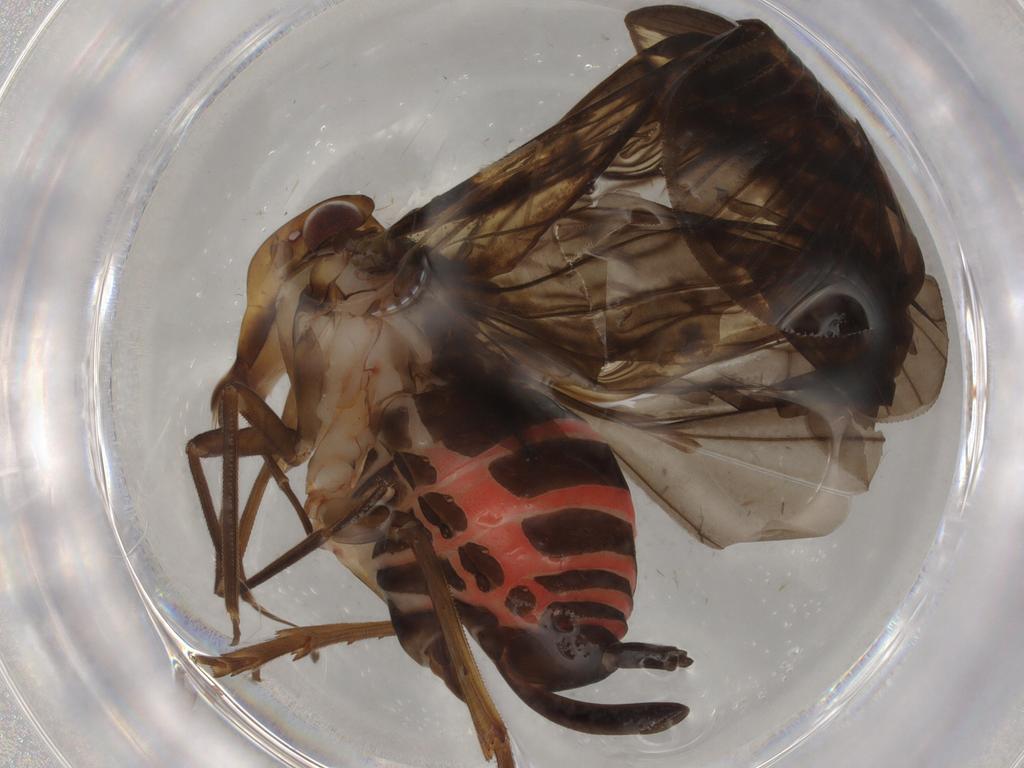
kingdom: Animalia
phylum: Arthropoda
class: Insecta
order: Hemiptera
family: Cixiidae
